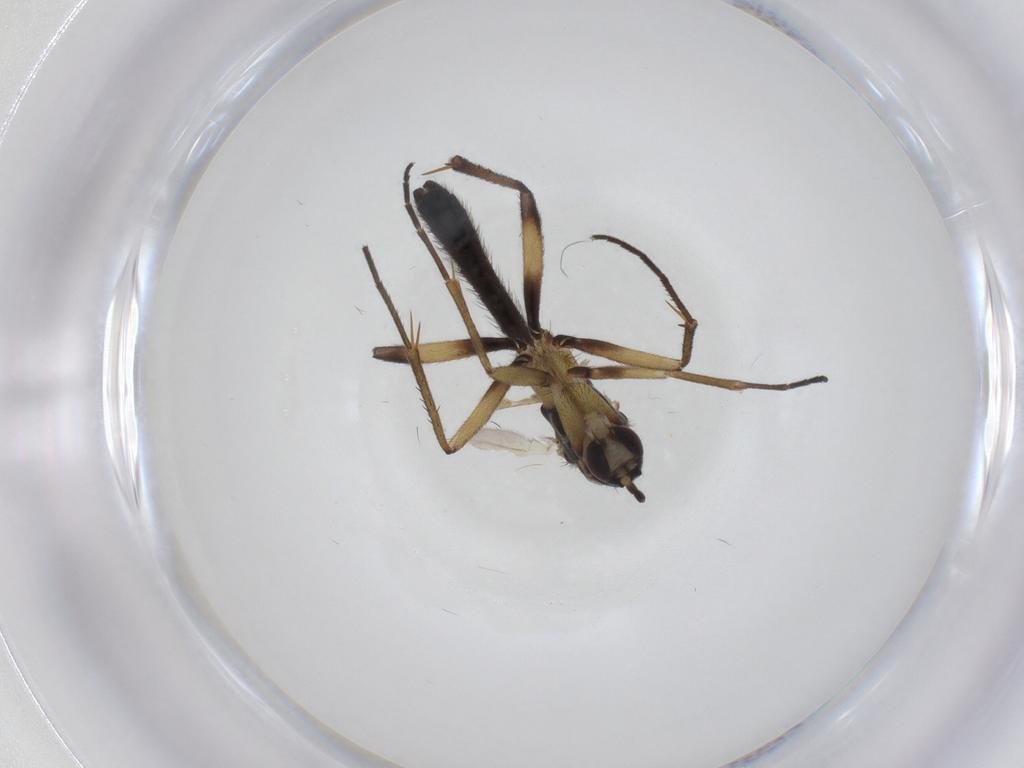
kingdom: Animalia
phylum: Arthropoda
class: Insecta
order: Diptera
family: Mycetophilidae
